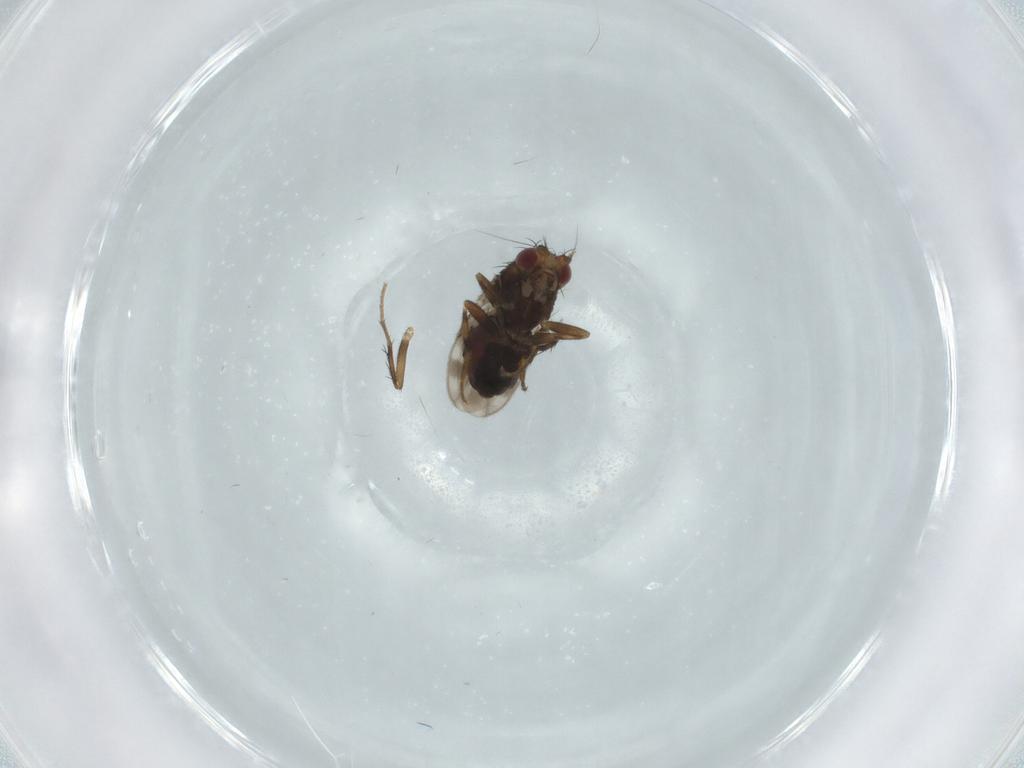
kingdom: Animalia
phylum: Arthropoda
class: Insecta
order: Diptera
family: Sphaeroceridae
